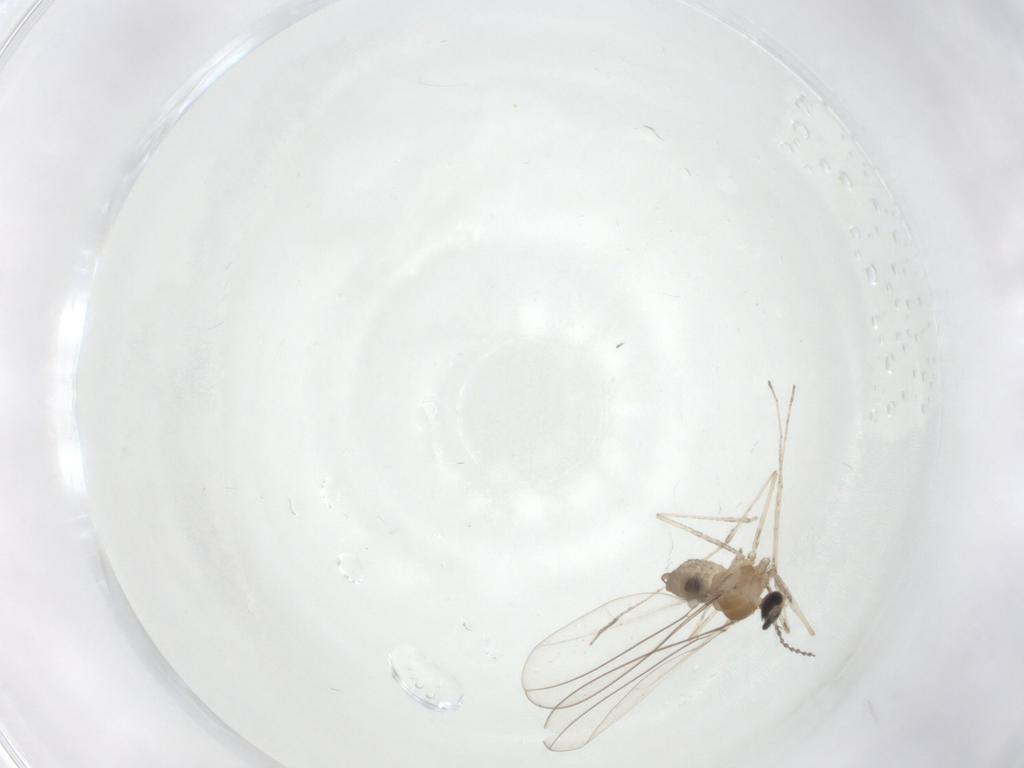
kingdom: Animalia
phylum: Arthropoda
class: Insecta
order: Diptera
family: Cecidomyiidae
